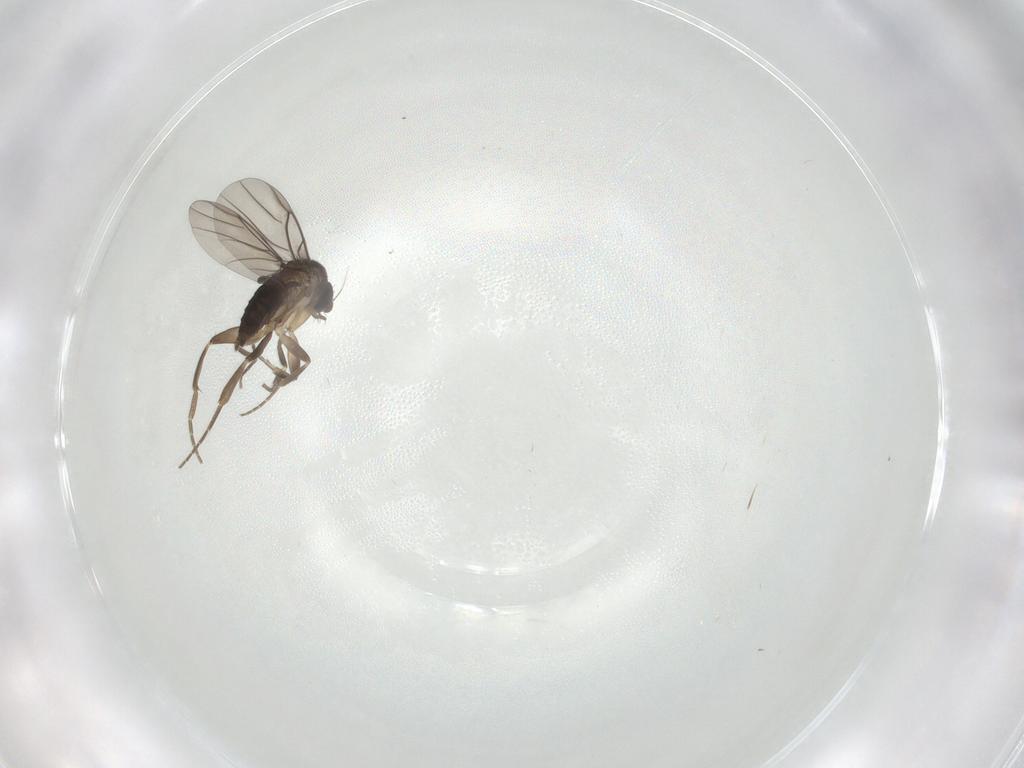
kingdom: Animalia
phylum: Arthropoda
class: Insecta
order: Diptera
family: Phoridae
